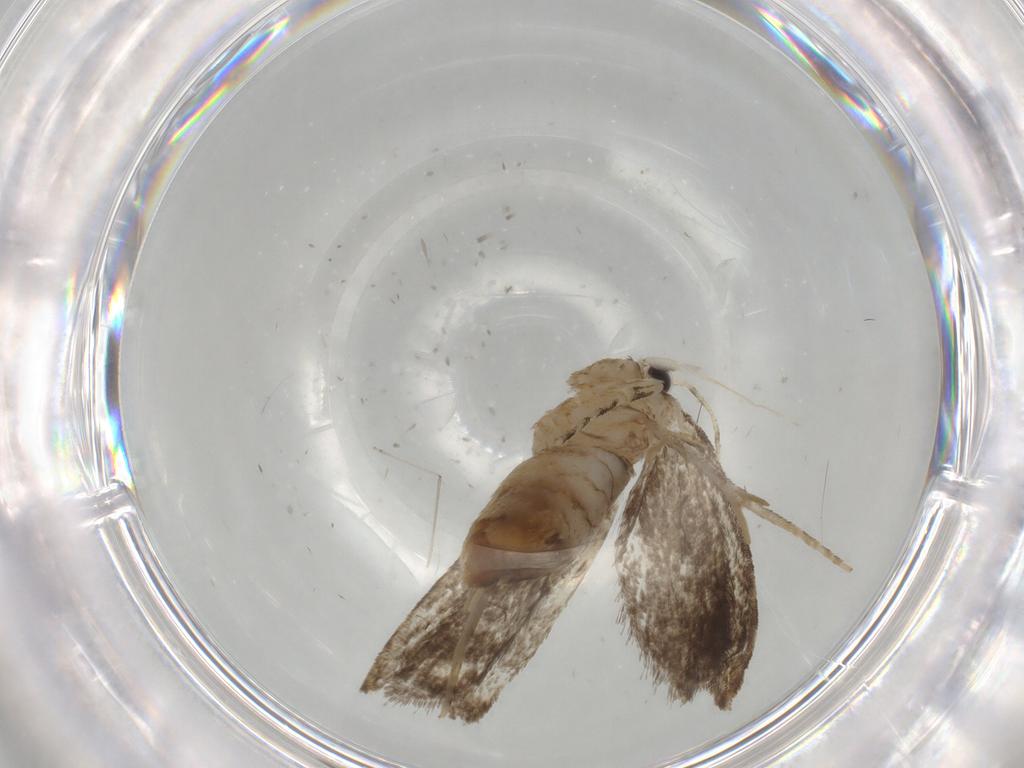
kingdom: Animalia
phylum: Arthropoda
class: Insecta
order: Lepidoptera
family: Tineidae
